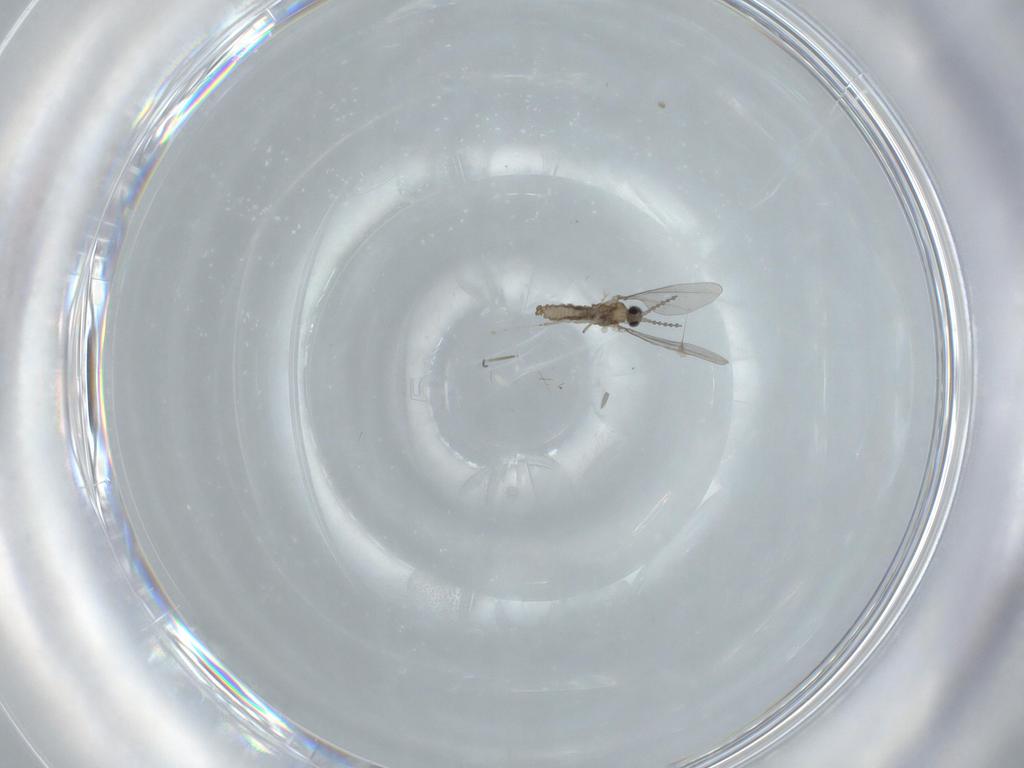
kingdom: Animalia
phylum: Arthropoda
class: Insecta
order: Diptera
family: Cecidomyiidae
